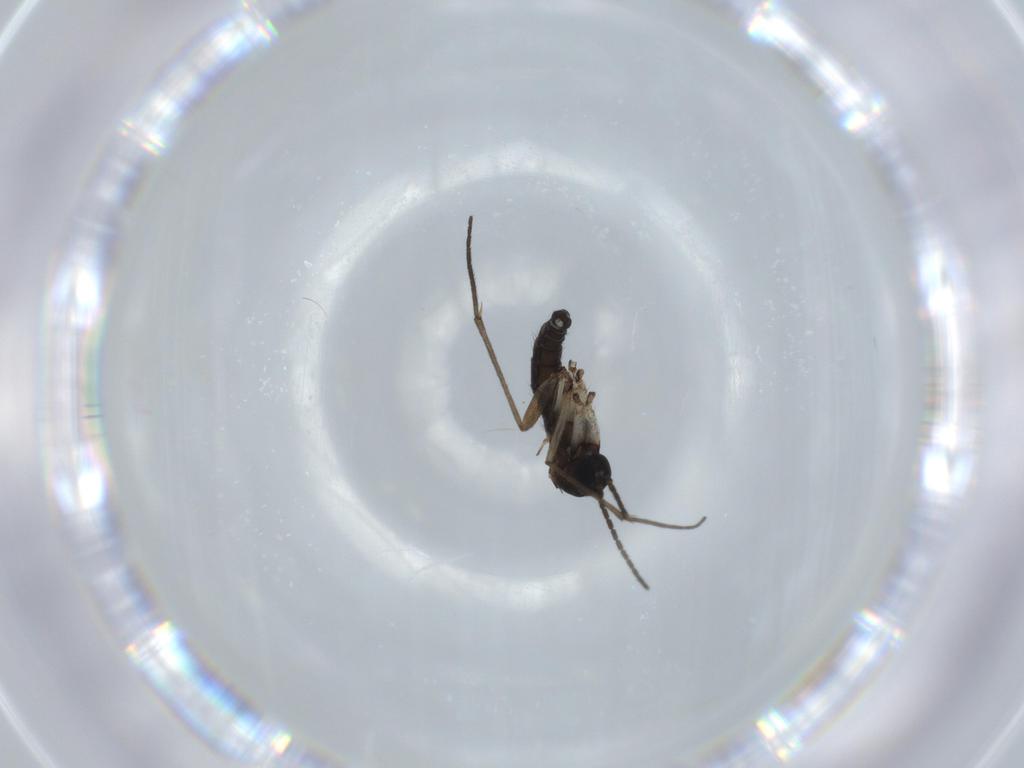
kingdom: Animalia
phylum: Arthropoda
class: Insecta
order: Diptera
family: Sciaridae
